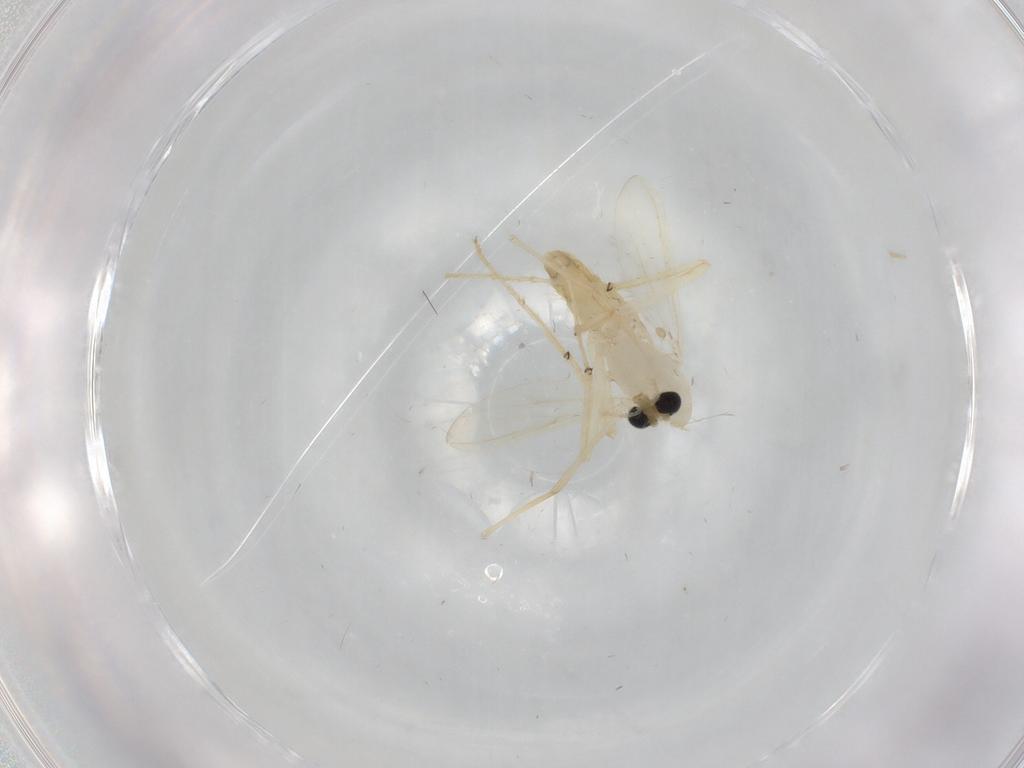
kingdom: Animalia
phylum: Arthropoda
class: Insecta
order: Diptera
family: Chironomidae
